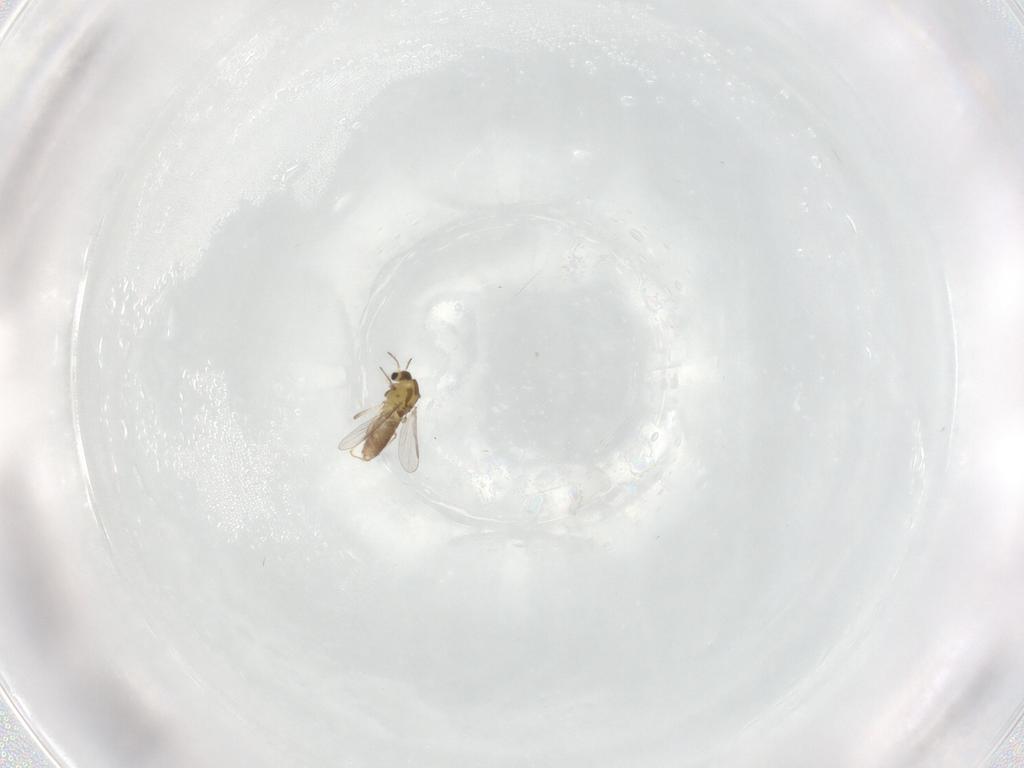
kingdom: Animalia
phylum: Arthropoda
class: Insecta
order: Diptera
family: Chironomidae
